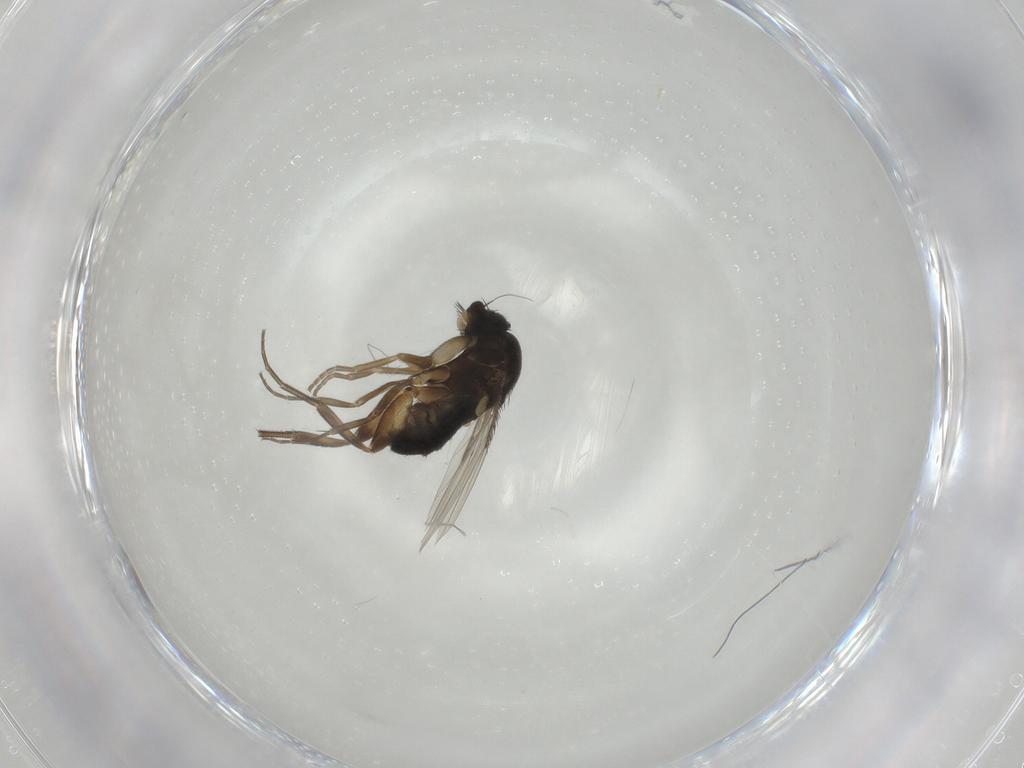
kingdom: Animalia
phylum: Arthropoda
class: Insecta
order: Diptera
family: Phoridae
